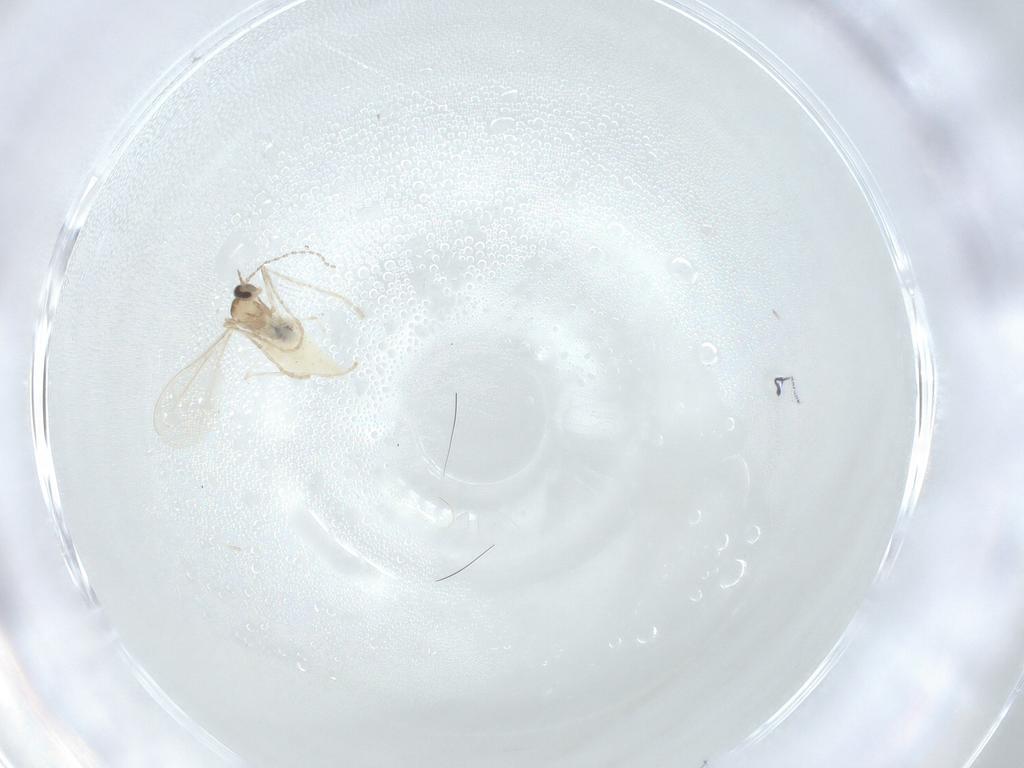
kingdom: Animalia
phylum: Arthropoda
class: Insecta
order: Diptera
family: Cecidomyiidae
